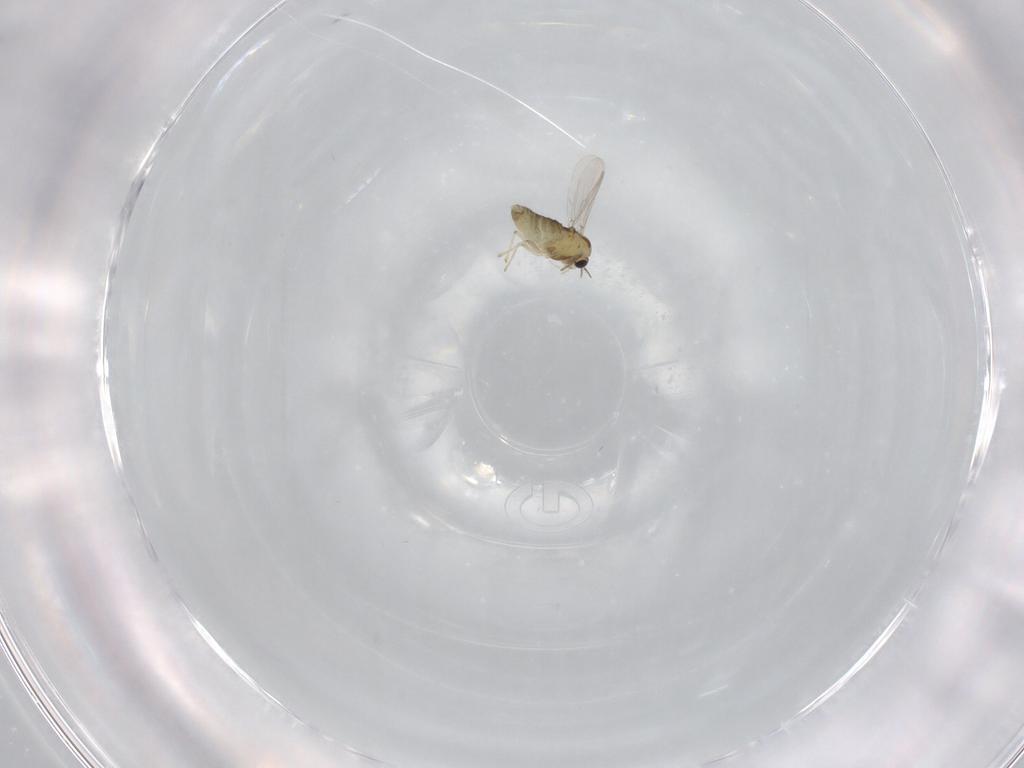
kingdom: Animalia
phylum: Arthropoda
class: Insecta
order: Diptera
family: Chironomidae
